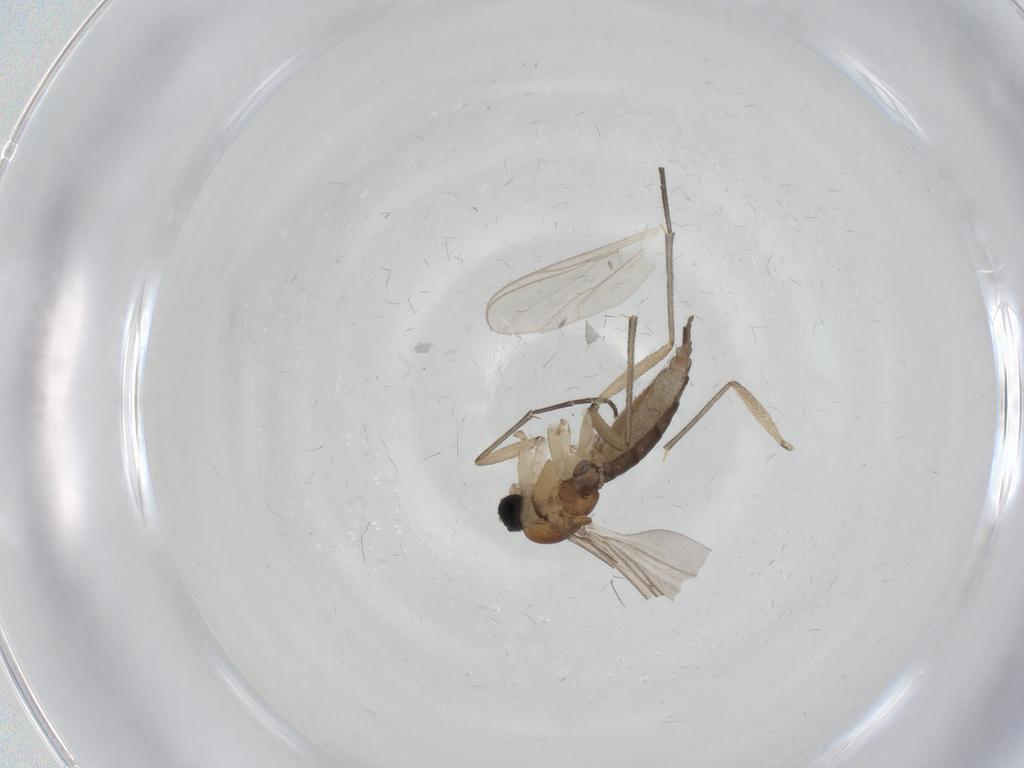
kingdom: Animalia
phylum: Arthropoda
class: Insecta
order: Diptera
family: Sciaridae
